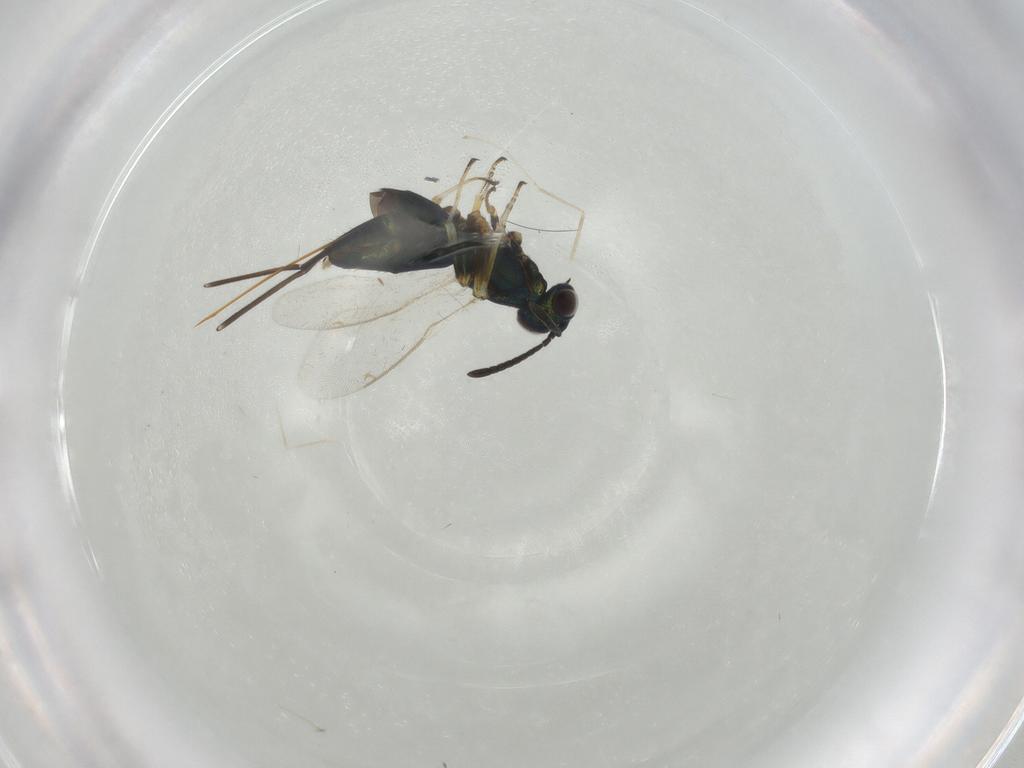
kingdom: Animalia
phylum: Arthropoda
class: Insecta
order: Hymenoptera
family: Eupelmidae
